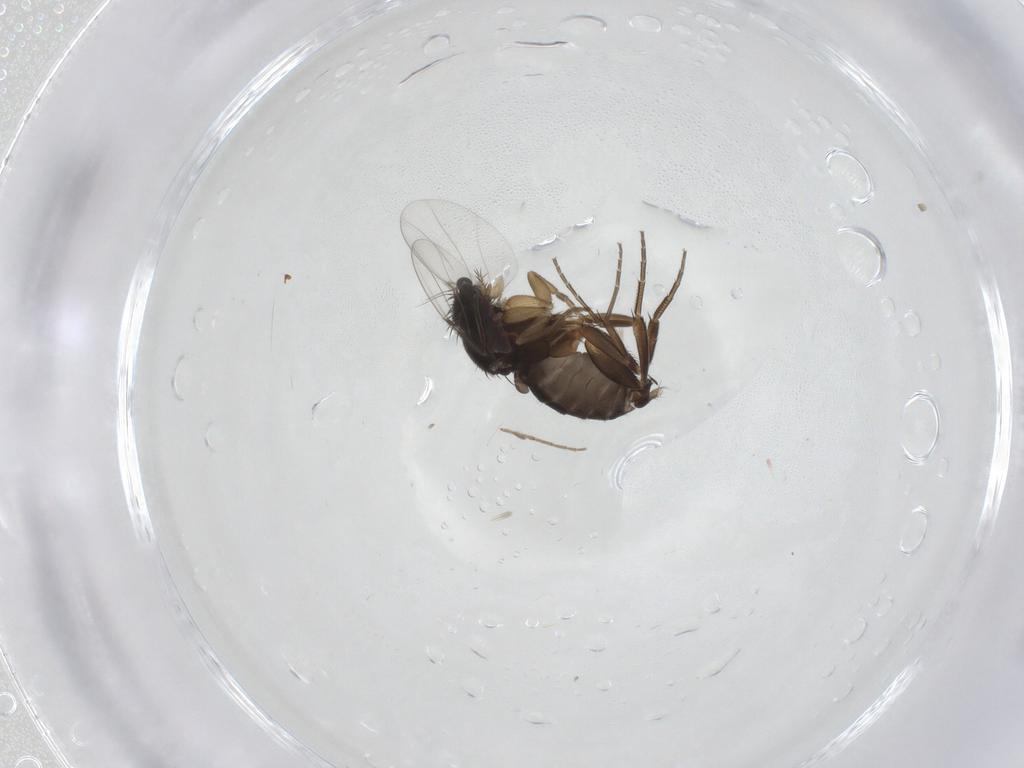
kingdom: Animalia
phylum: Arthropoda
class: Insecta
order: Diptera
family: Phoridae
